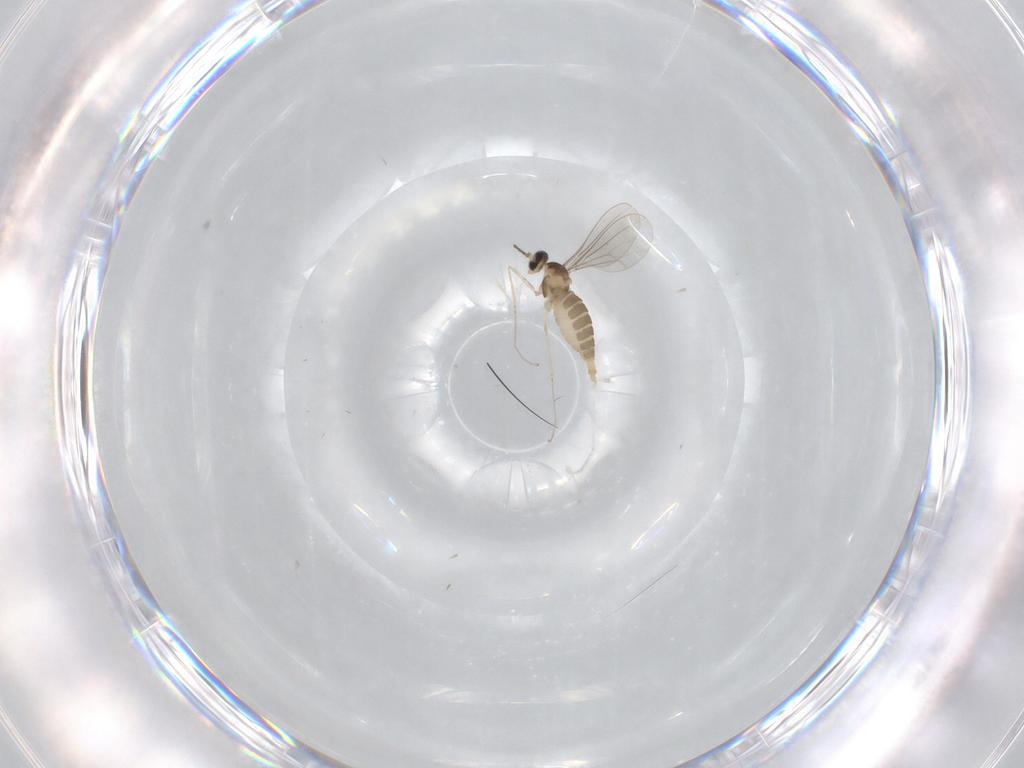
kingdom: Animalia
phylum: Arthropoda
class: Insecta
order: Diptera
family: Cecidomyiidae
